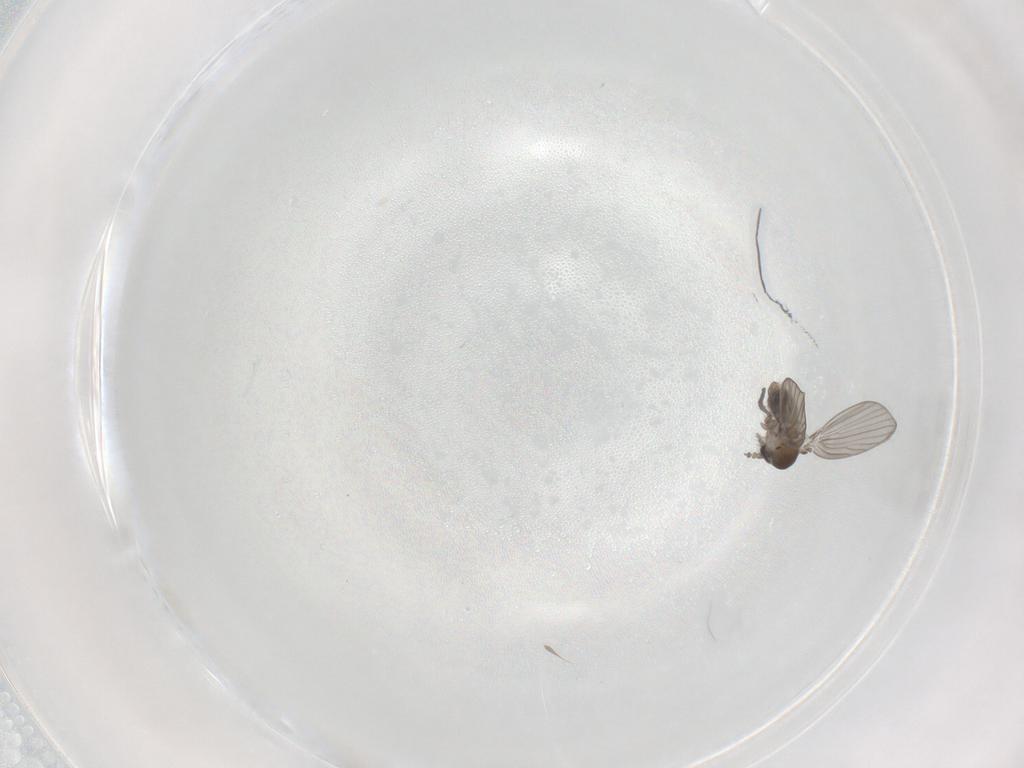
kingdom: Animalia
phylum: Arthropoda
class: Insecta
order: Diptera
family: Psychodidae
